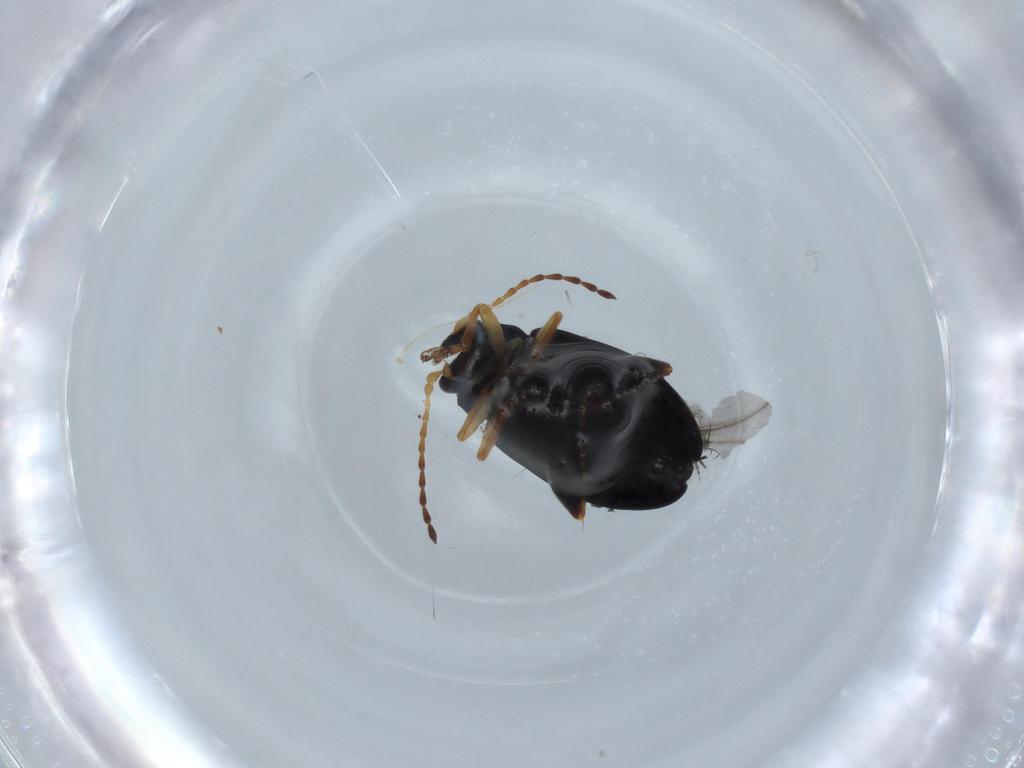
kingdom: Animalia
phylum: Arthropoda
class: Insecta
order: Coleoptera
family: Chrysomelidae
